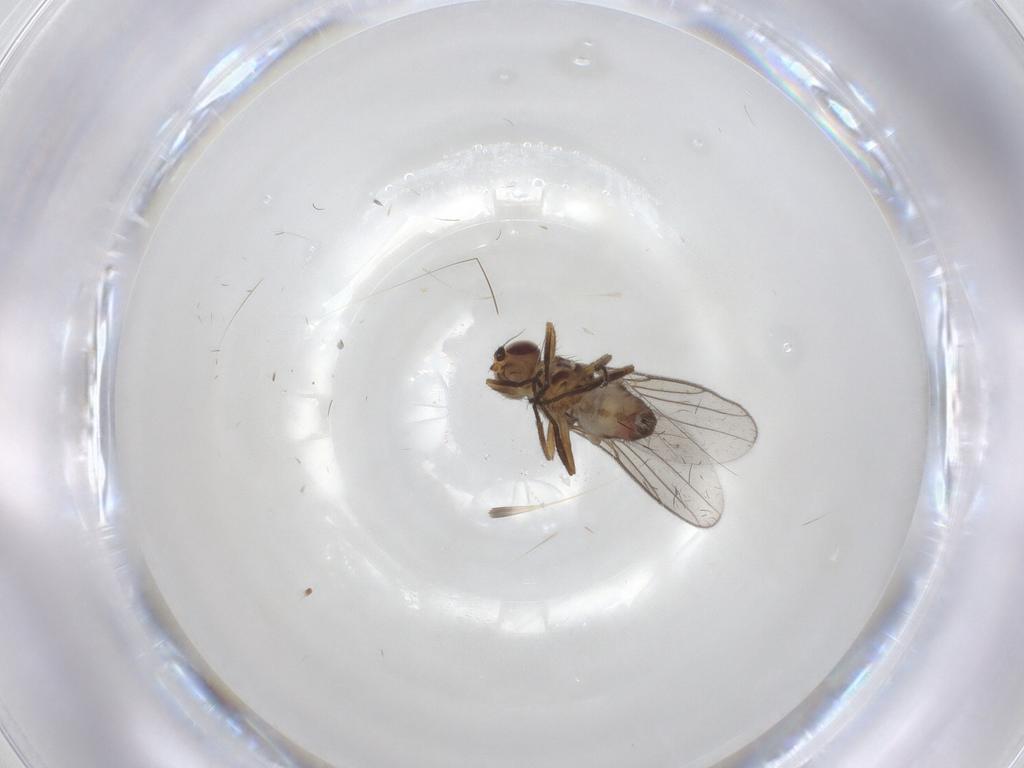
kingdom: Animalia
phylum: Arthropoda
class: Insecta
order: Diptera
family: Chloropidae
